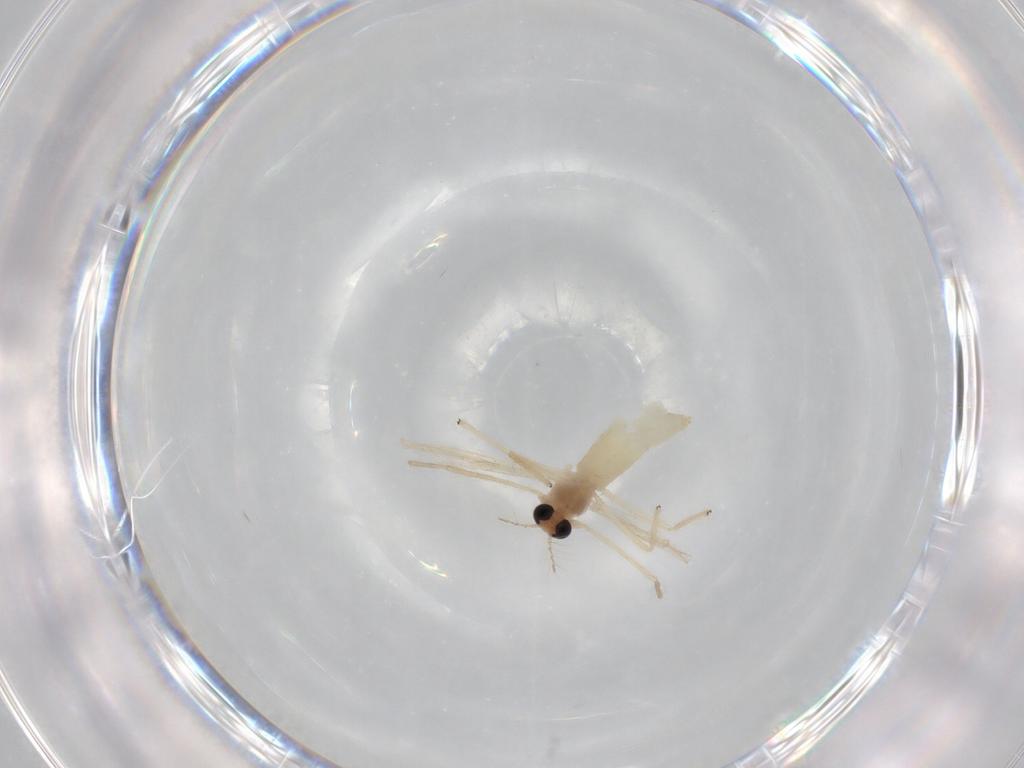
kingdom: Animalia
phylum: Arthropoda
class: Insecta
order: Diptera
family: Chironomidae
